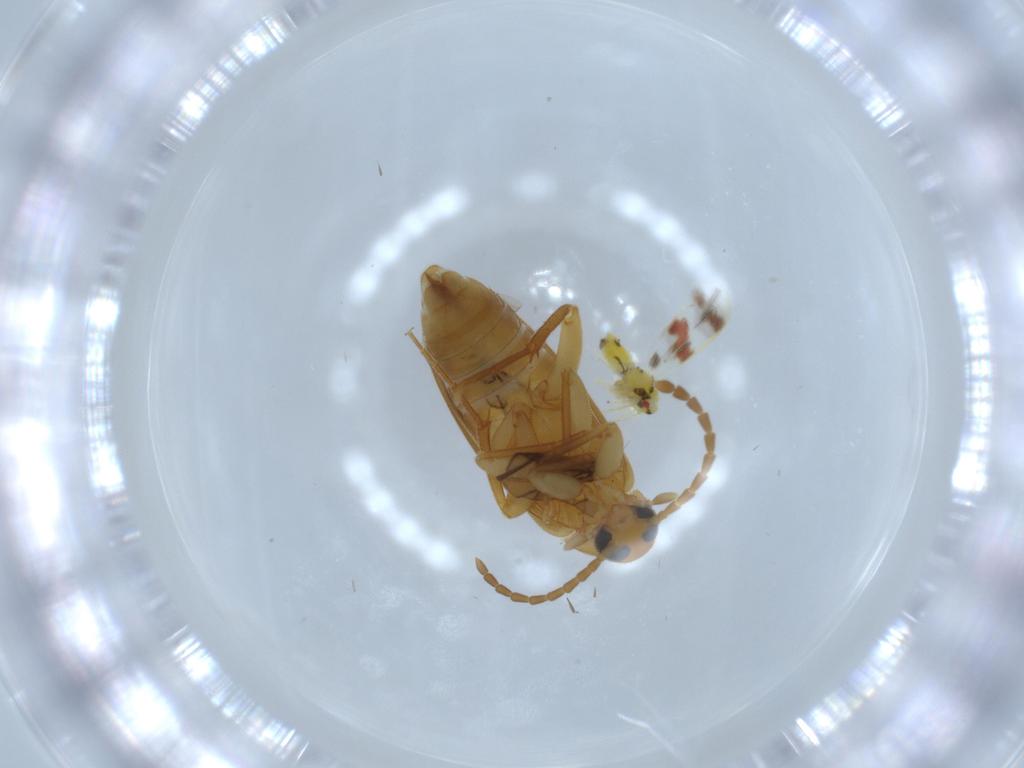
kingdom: Animalia
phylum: Arthropoda
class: Insecta
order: Coleoptera
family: Scraptiidae
